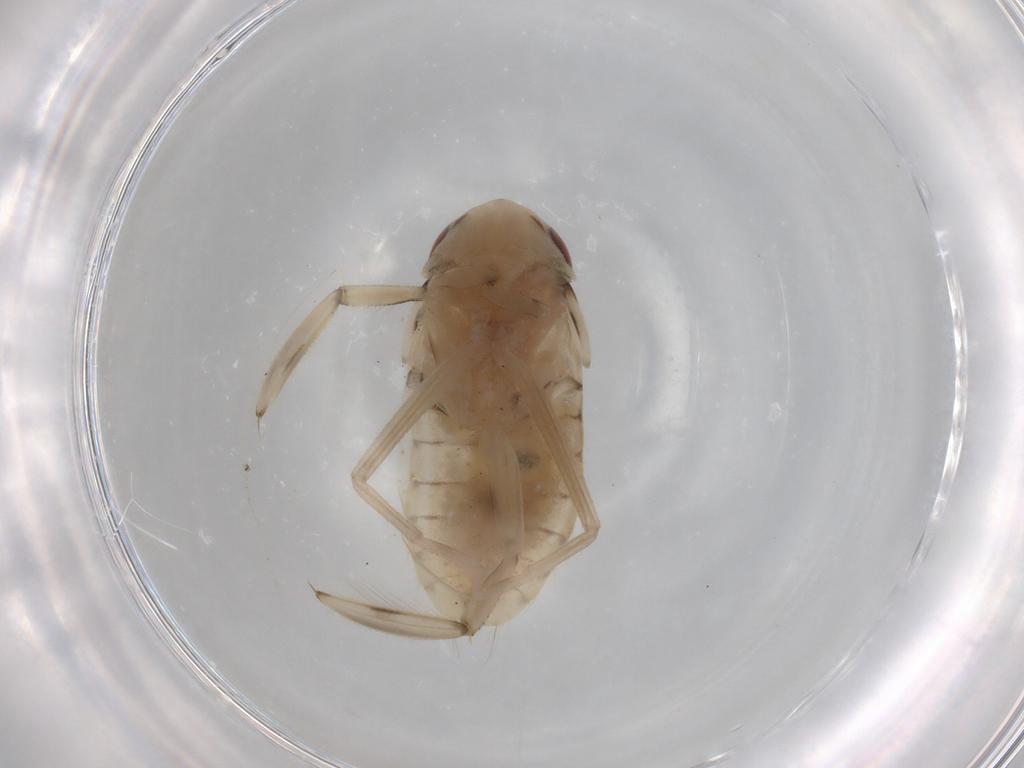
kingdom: Animalia
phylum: Arthropoda
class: Insecta
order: Hemiptera
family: Corixidae
